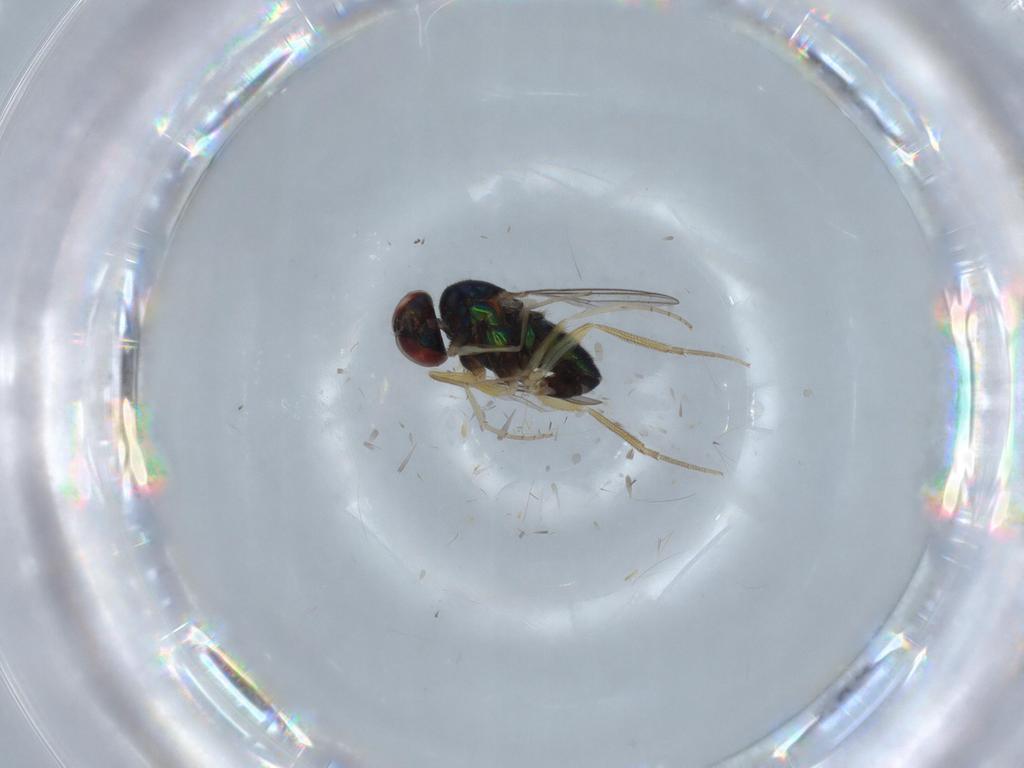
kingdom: Animalia
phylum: Arthropoda
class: Insecta
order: Diptera
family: Dolichopodidae
